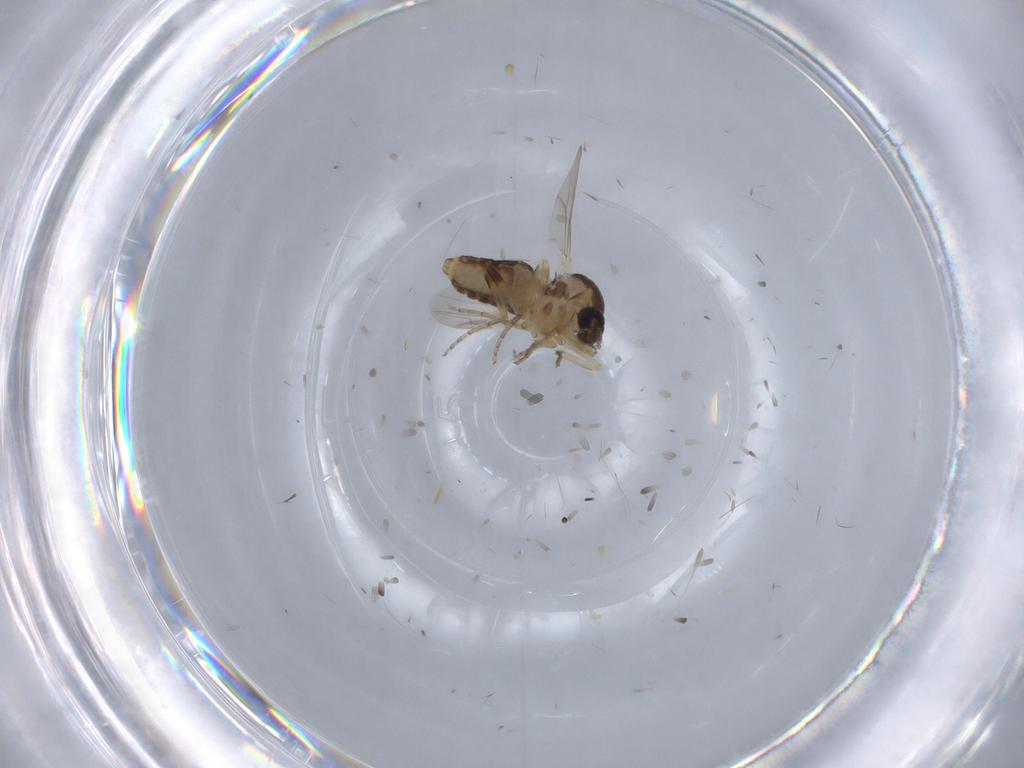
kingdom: Animalia
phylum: Arthropoda
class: Insecta
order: Diptera
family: Ceratopogonidae
